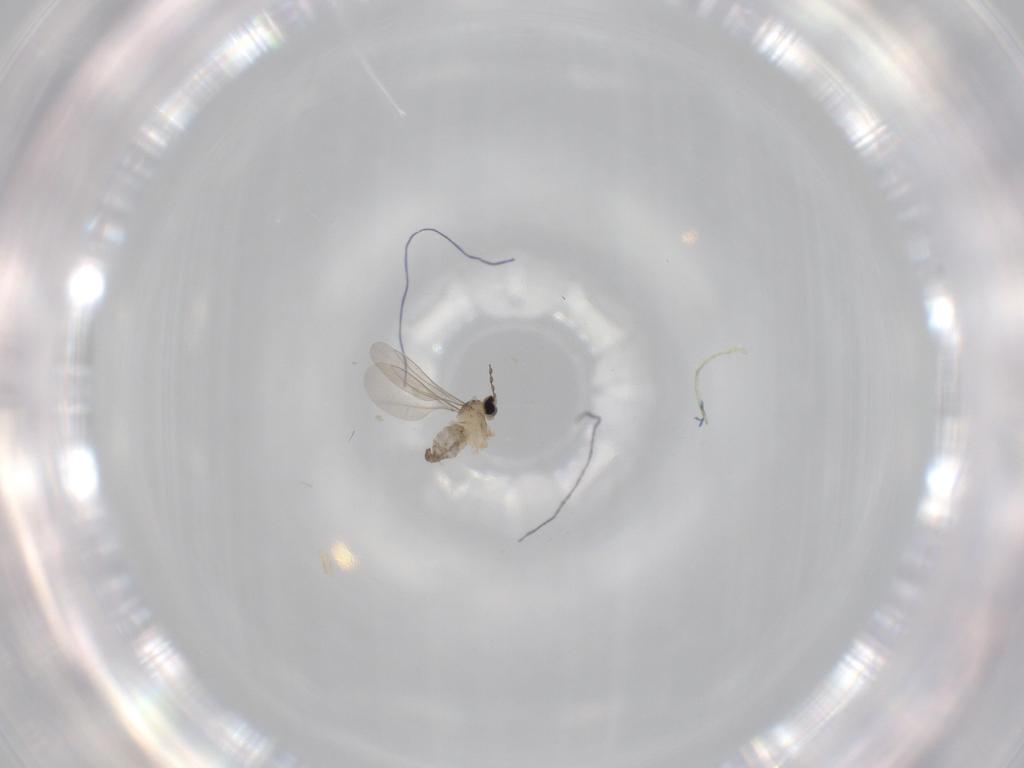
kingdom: Animalia
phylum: Arthropoda
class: Insecta
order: Diptera
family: Cecidomyiidae
